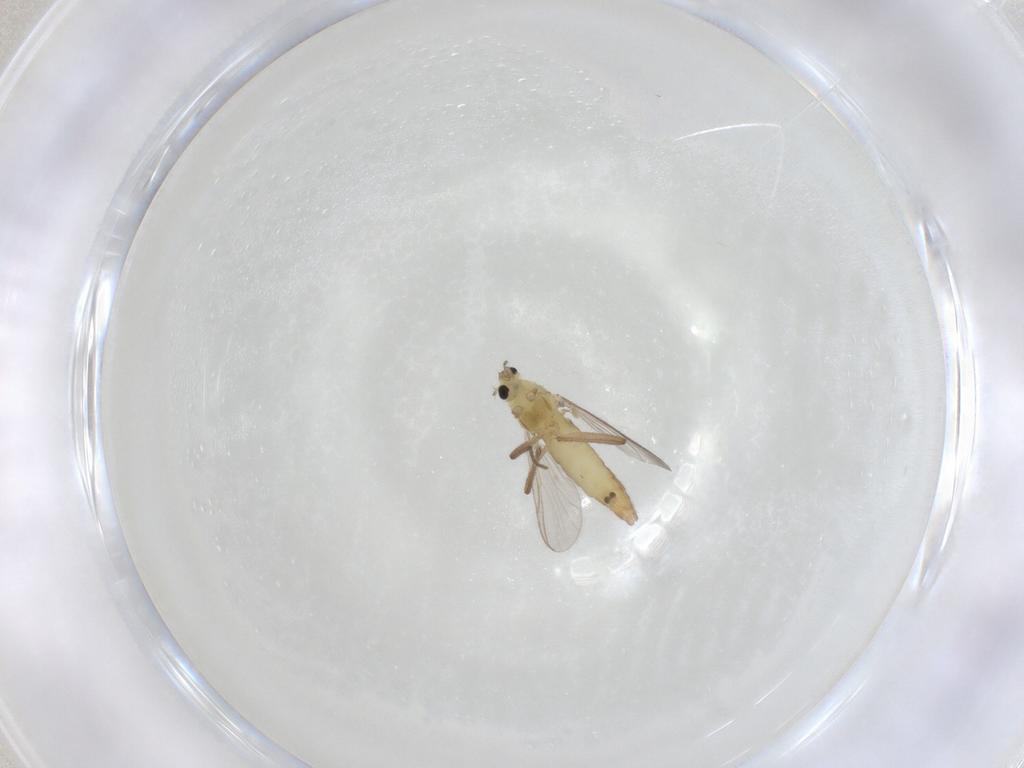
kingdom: Animalia
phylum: Arthropoda
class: Insecta
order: Diptera
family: Chironomidae
